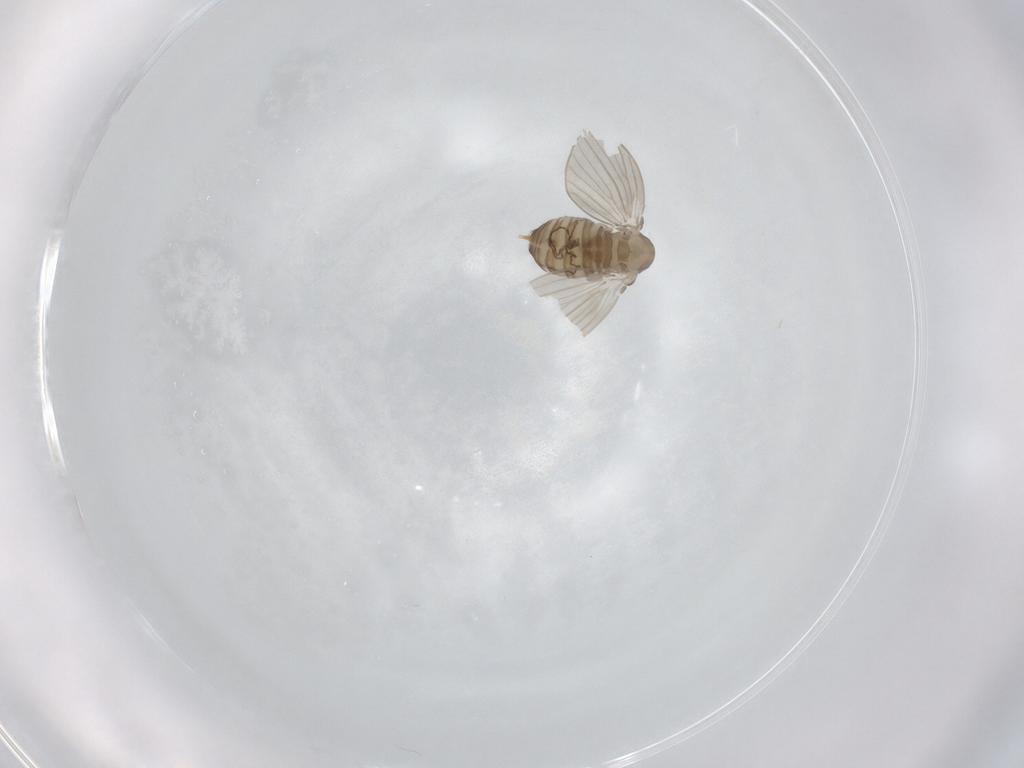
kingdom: Animalia
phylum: Arthropoda
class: Insecta
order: Diptera
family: Psychodidae
